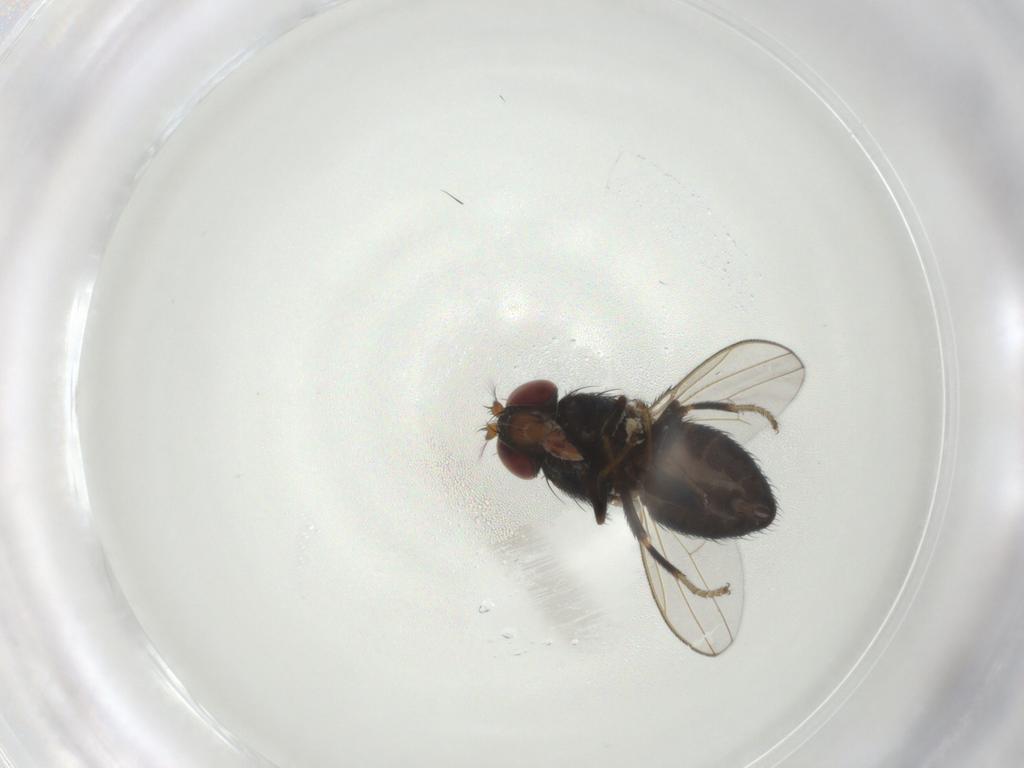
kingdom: Animalia
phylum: Arthropoda
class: Insecta
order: Diptera
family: Ephydridae
